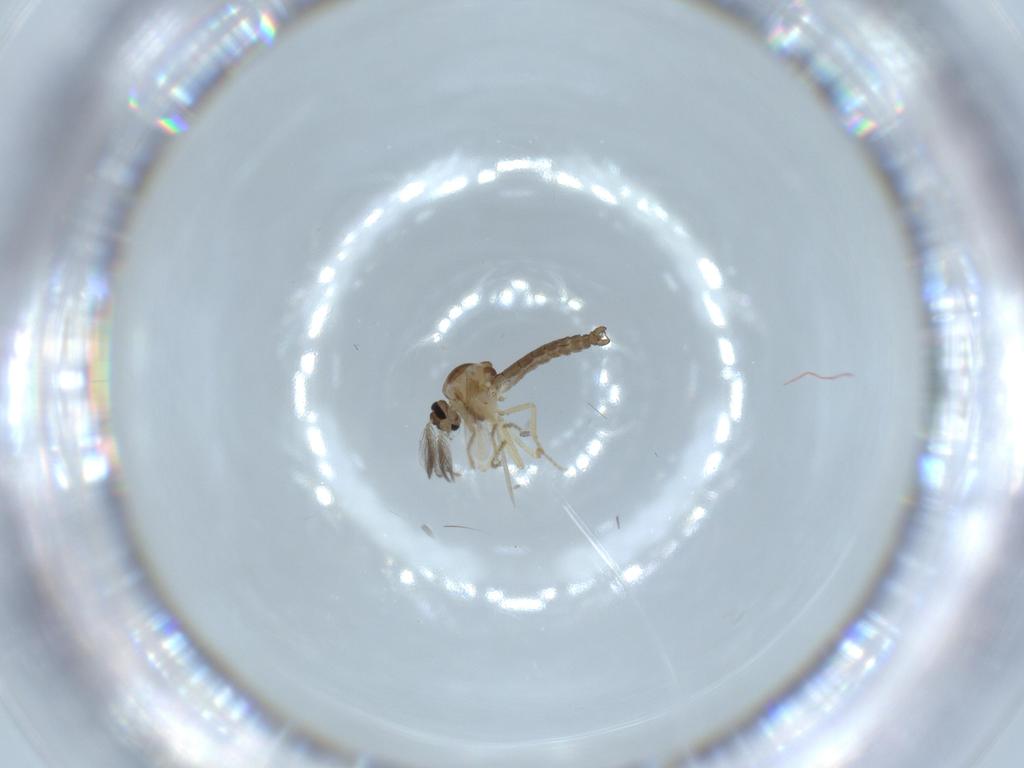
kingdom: Animalia
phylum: Arthropoda
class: Insecta
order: Diptera
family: Ceratopogonidae
